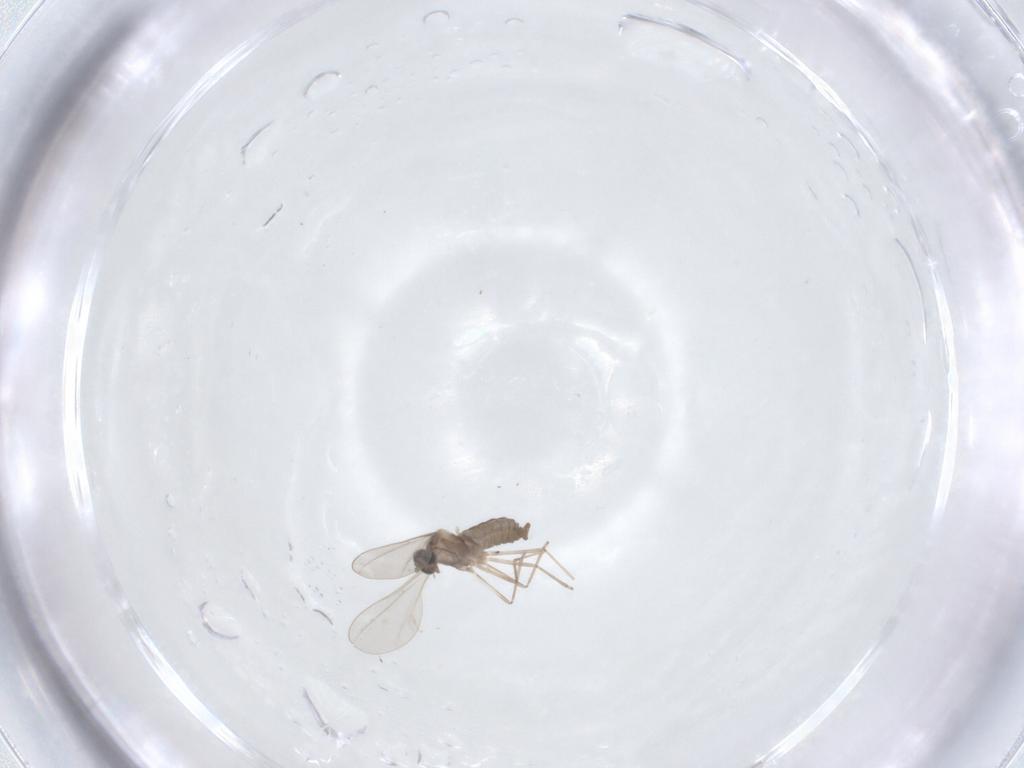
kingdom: Animalia
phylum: Arthropoda
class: Insecta
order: Diptera
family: Cecidomyiidae
